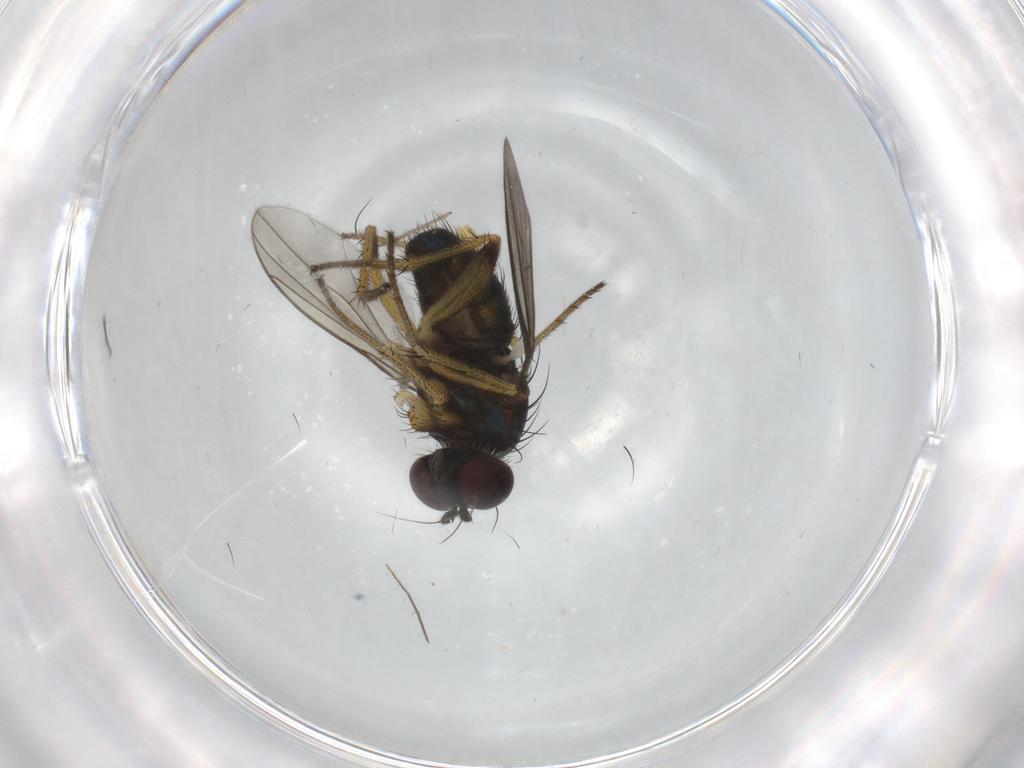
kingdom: Animalia
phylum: Arthropoda
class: Insecta
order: Diptera
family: Dolichopodidae
